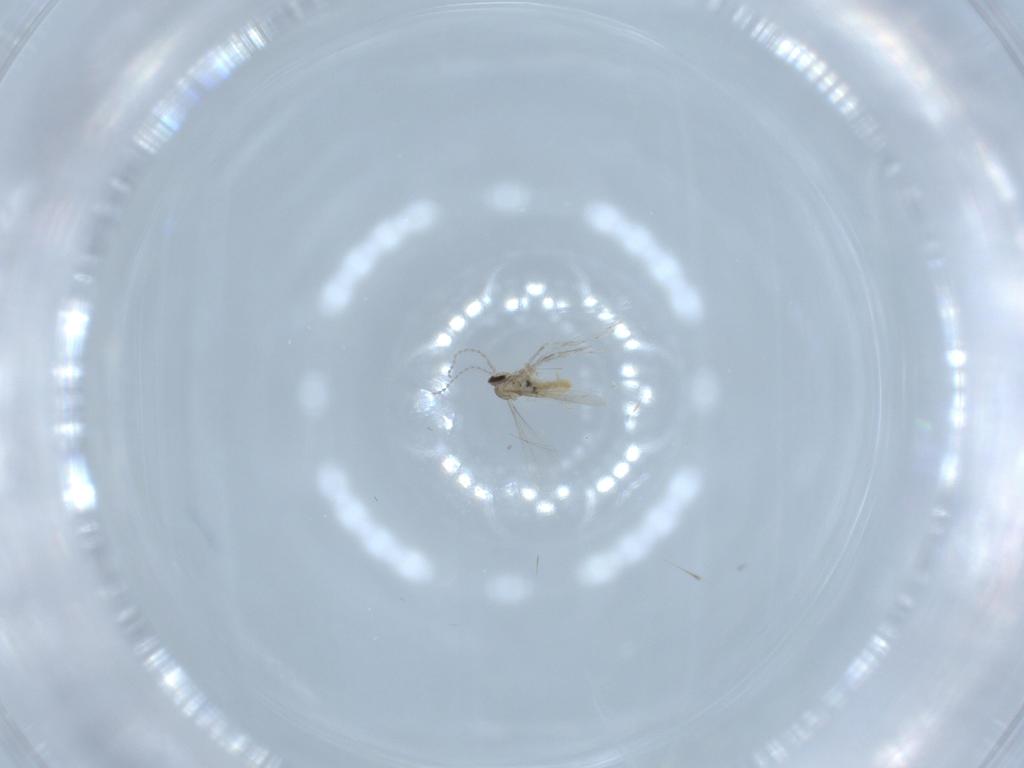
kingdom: Animalia
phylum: Arthropoda
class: Insecta
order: Diptera
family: Cecidomyiidae
